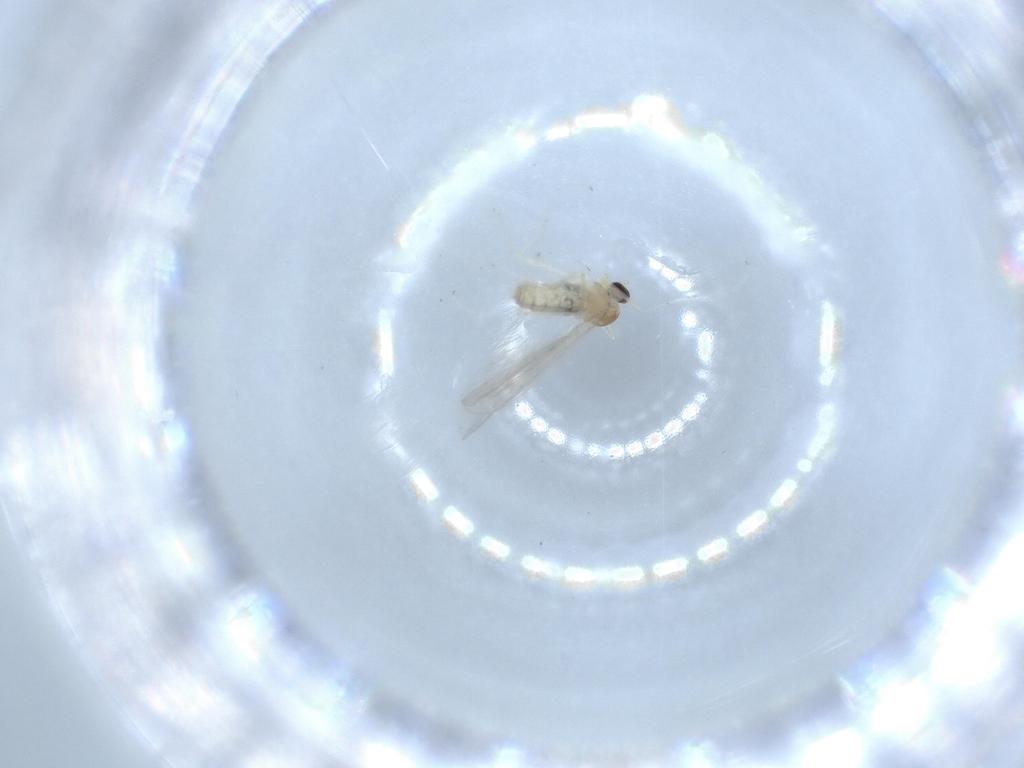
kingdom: Animalia
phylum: Arthropoda
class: Insecta
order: Diptera
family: Cecidomyiidae
